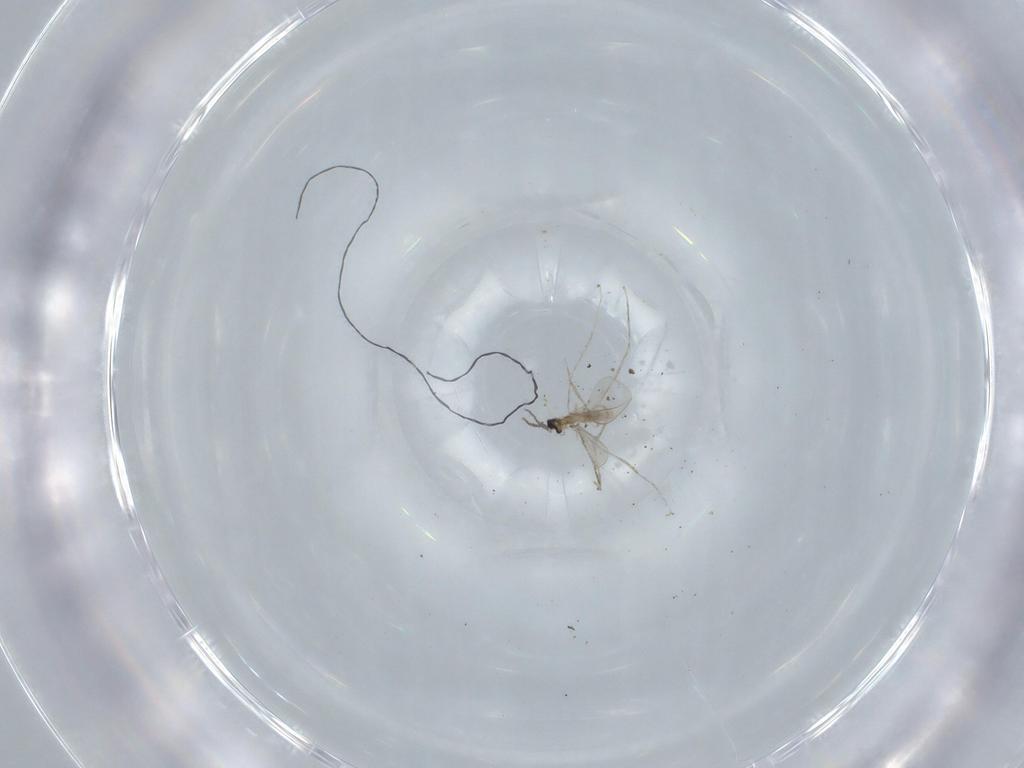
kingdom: Animalia
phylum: Arthropoda
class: Insecta
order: Diptera
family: Cecidomyiidae
